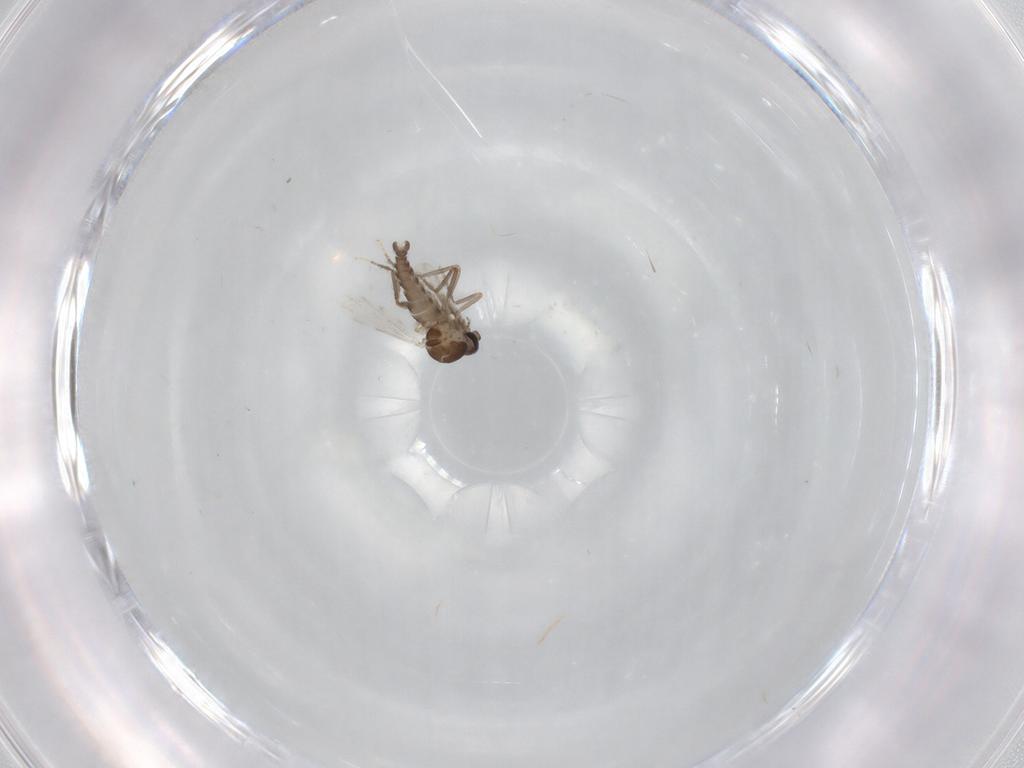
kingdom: Animalia
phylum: Arthropoda
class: Insecta
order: Diptera
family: Ceratopogonidae
